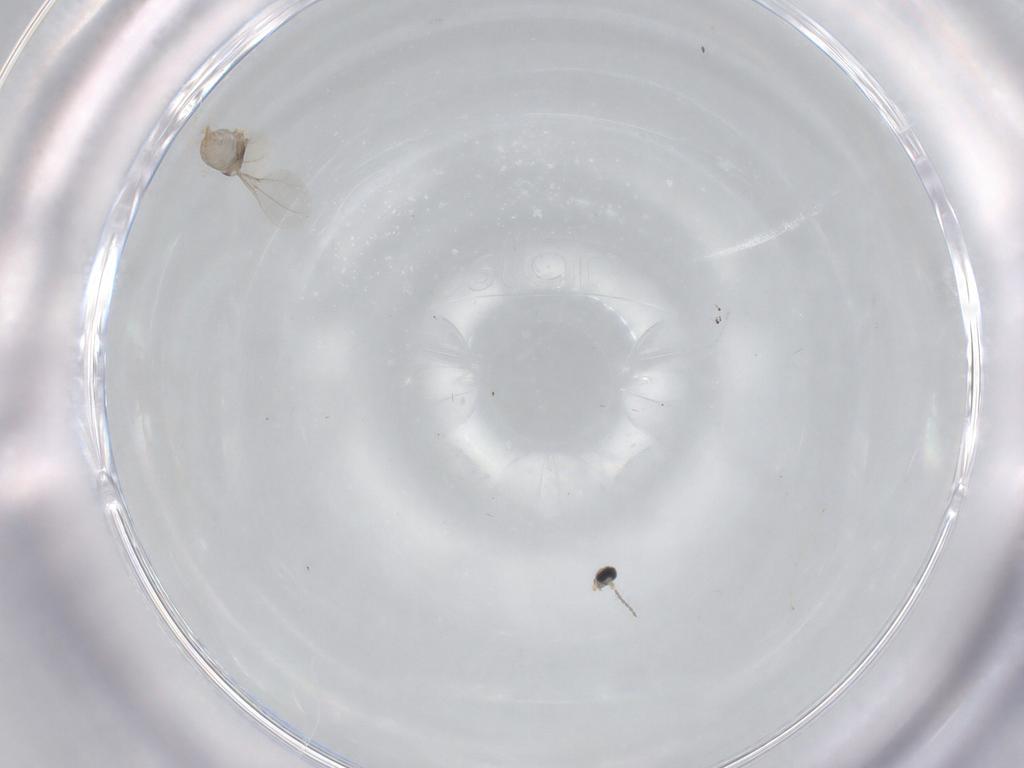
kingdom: Animalia
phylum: Arthropoda
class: Insecta
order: Diptera
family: Cecidomyiidae
